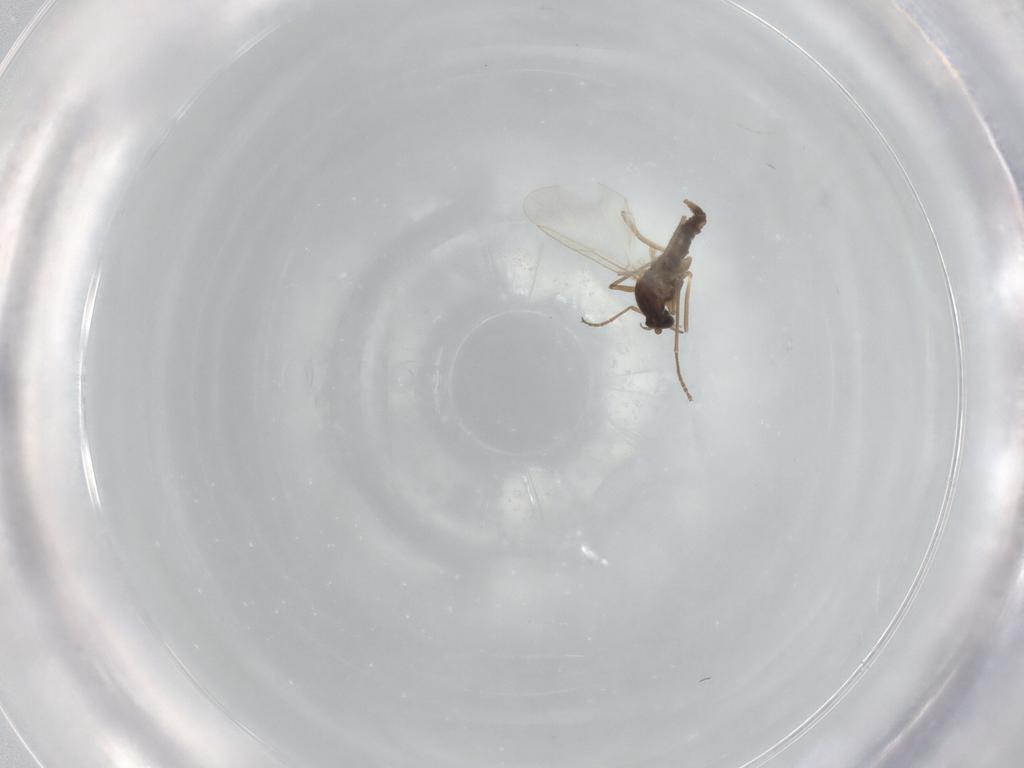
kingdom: Animalia
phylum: Arthropoda
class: Insecta
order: Diptera
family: Cecidomyiidae
